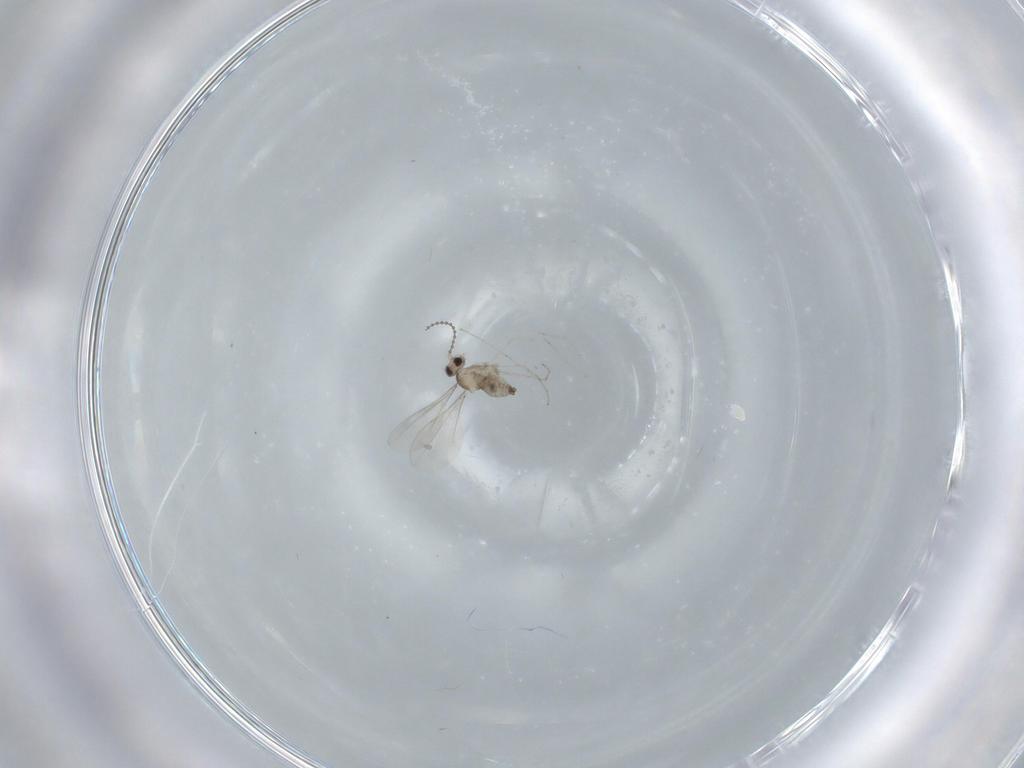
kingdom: Animalia
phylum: Arthropoda
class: Insecta
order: Diptera
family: Cecidomyiidae
